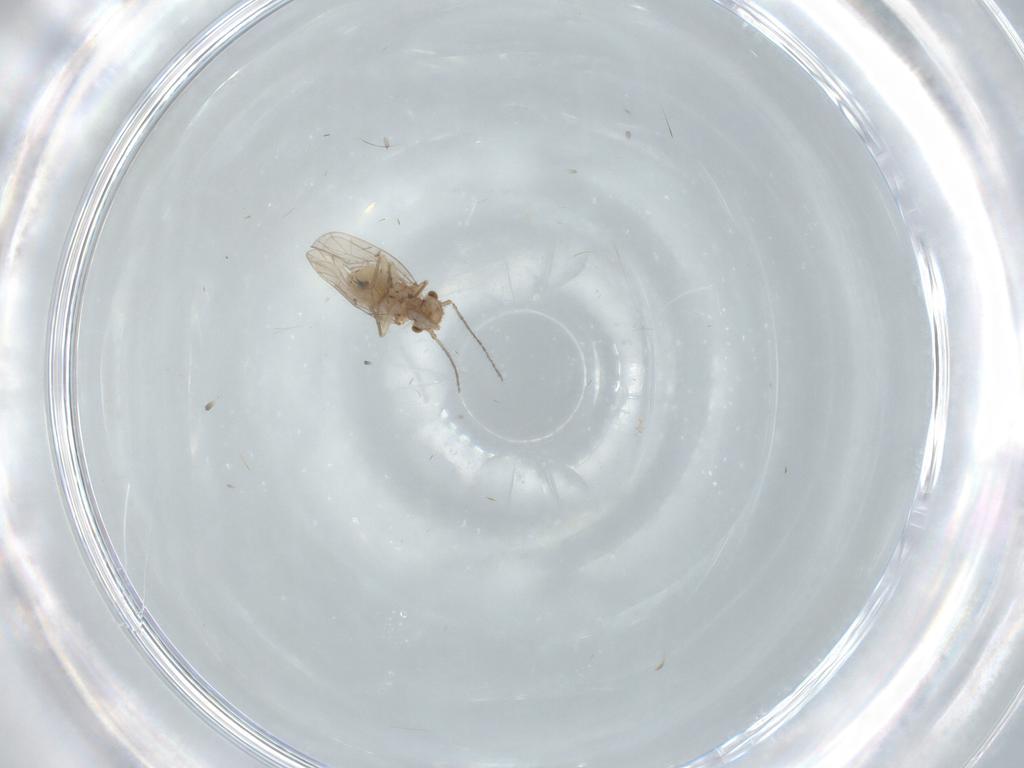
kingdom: Animalia
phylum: Arthropoda
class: Insecta
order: Psocodea
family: Ectopsocidae
